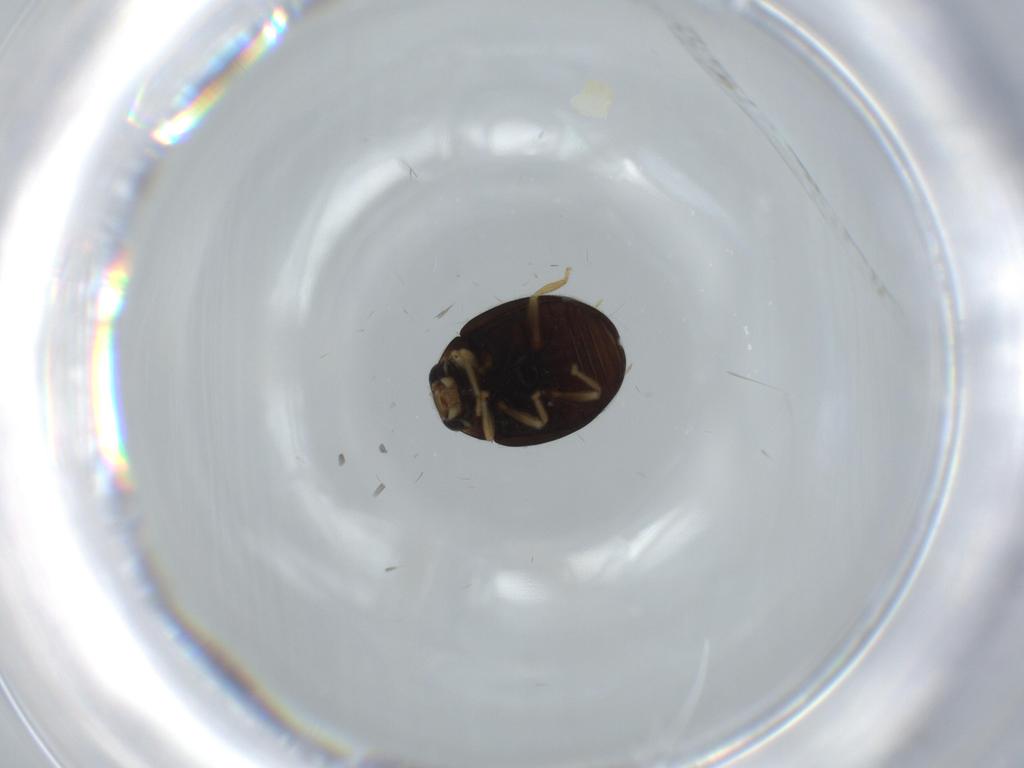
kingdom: Animalia
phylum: Arthropoda
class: Insecta
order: Coleoptera
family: Coccinellidae
